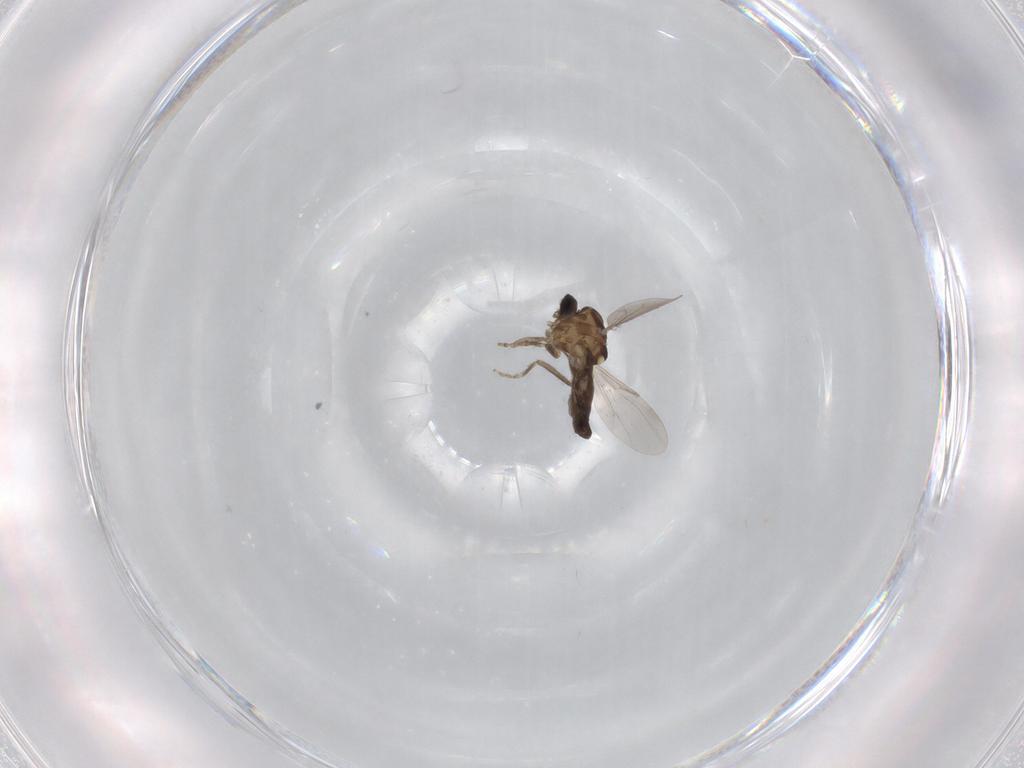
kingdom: Animalia
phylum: Arthropoda
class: Insecta
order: Diptera
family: Ceratopogonidae
